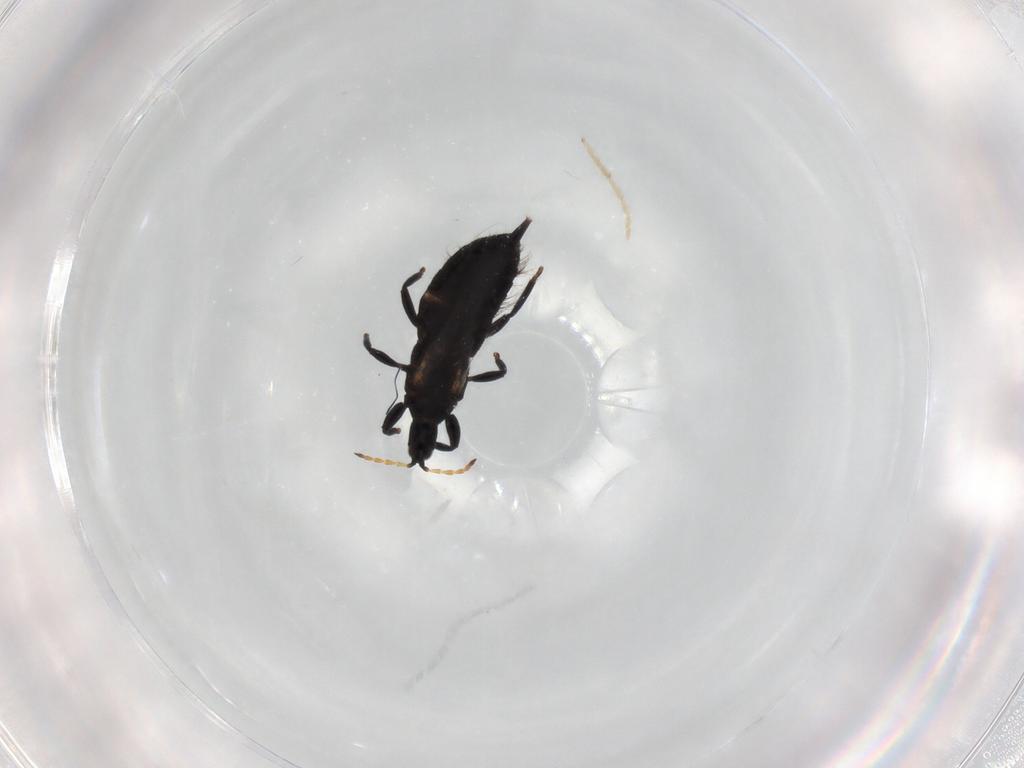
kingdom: Animalia
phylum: Arthropoda
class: Insecta
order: Thysanoptera
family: Phlaeothripidae
